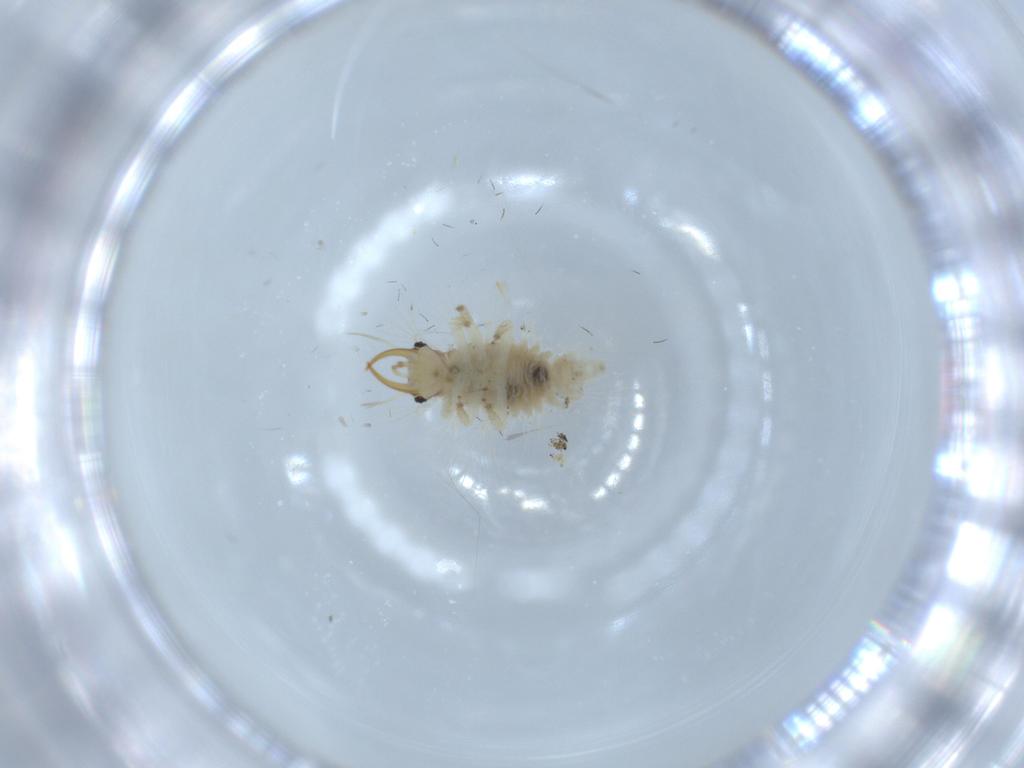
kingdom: Animalia
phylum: Arthropoda
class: Insecta
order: Neuroptera
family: Chrysopidae
